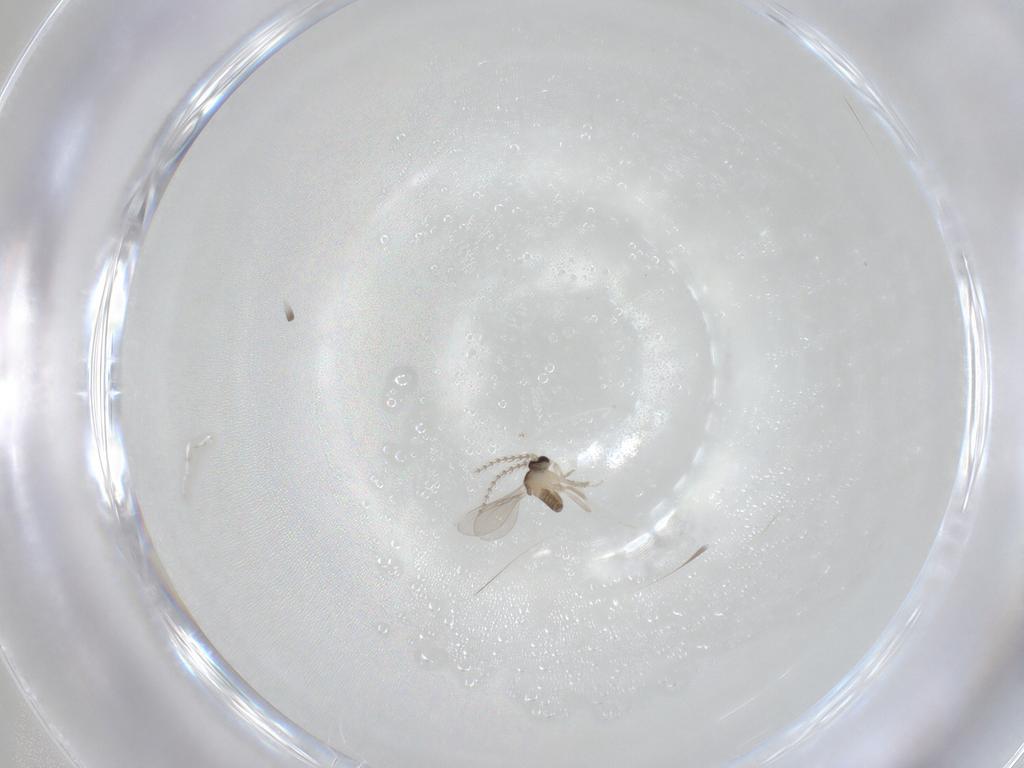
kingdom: Animalia
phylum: Arthropoda
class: Insecta
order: Diptera
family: Cecidomyiidae
